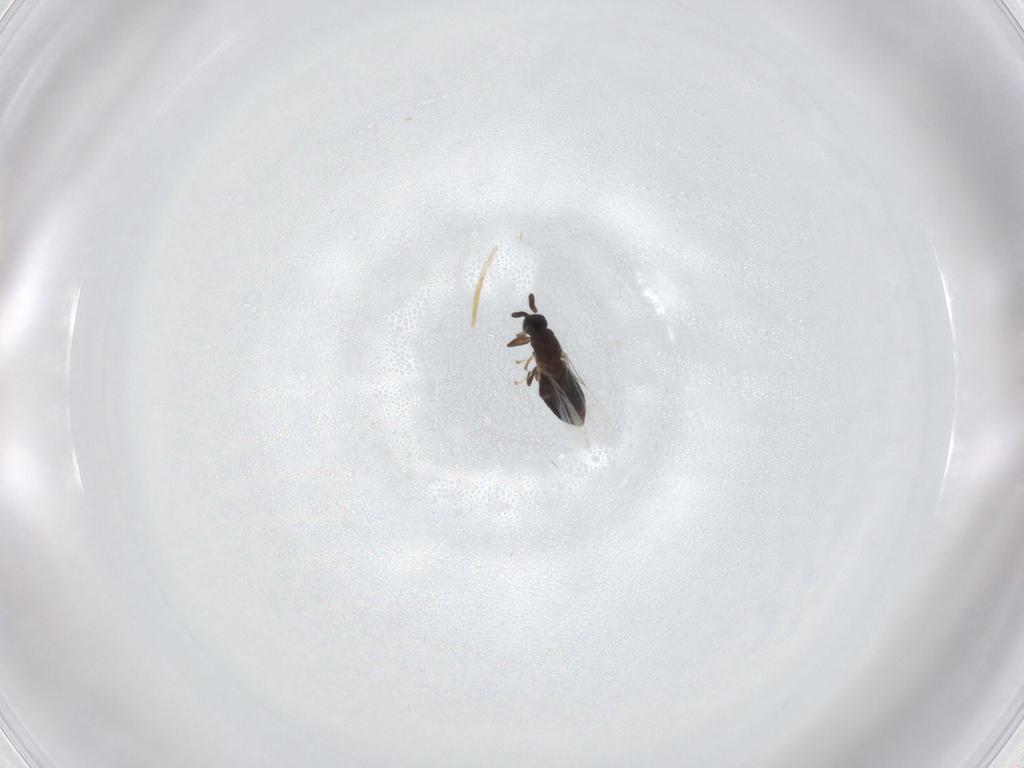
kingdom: Animalia
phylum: Arthropoda
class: Insecta
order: Diptera
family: Scatopsidae
